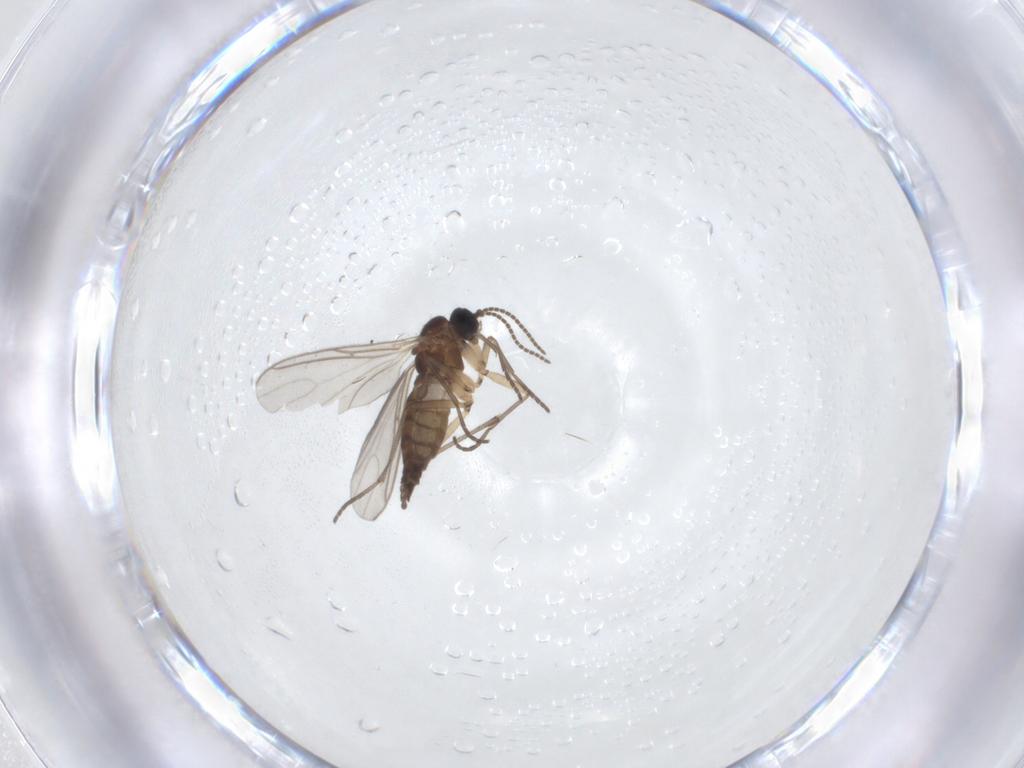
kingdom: Animalia
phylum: Arthropoda
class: Insecta
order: Diptera
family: Sciaridae
